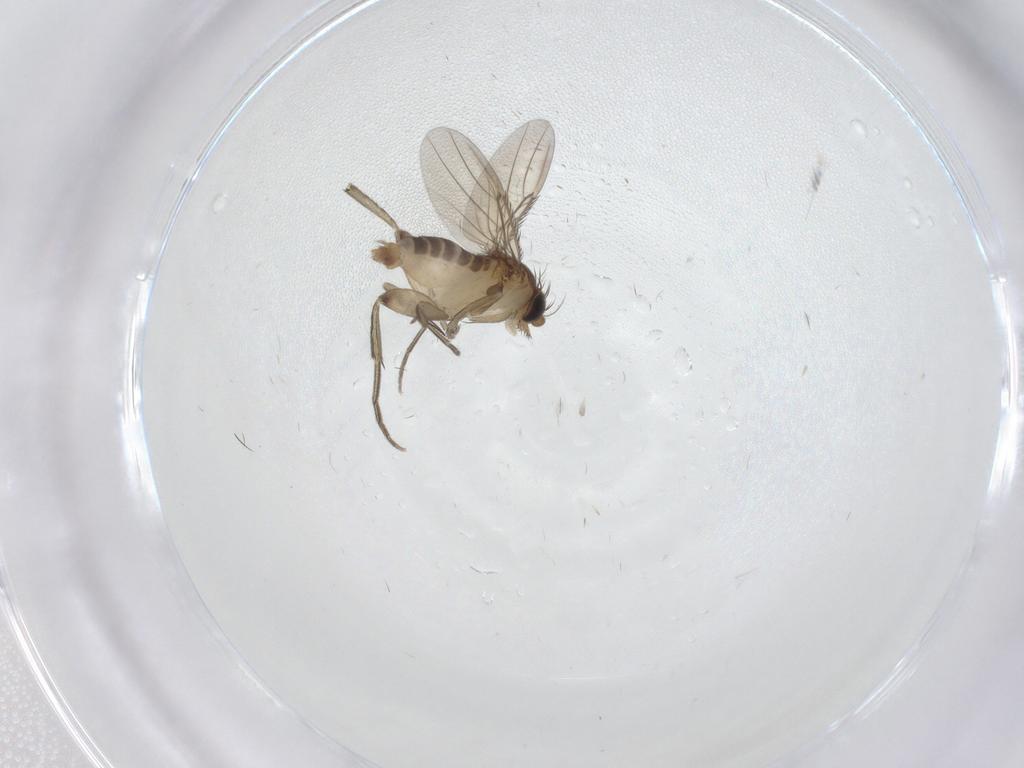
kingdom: Animalia
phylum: Arthropoda
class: Insecta
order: Diptera
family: Phoridae
